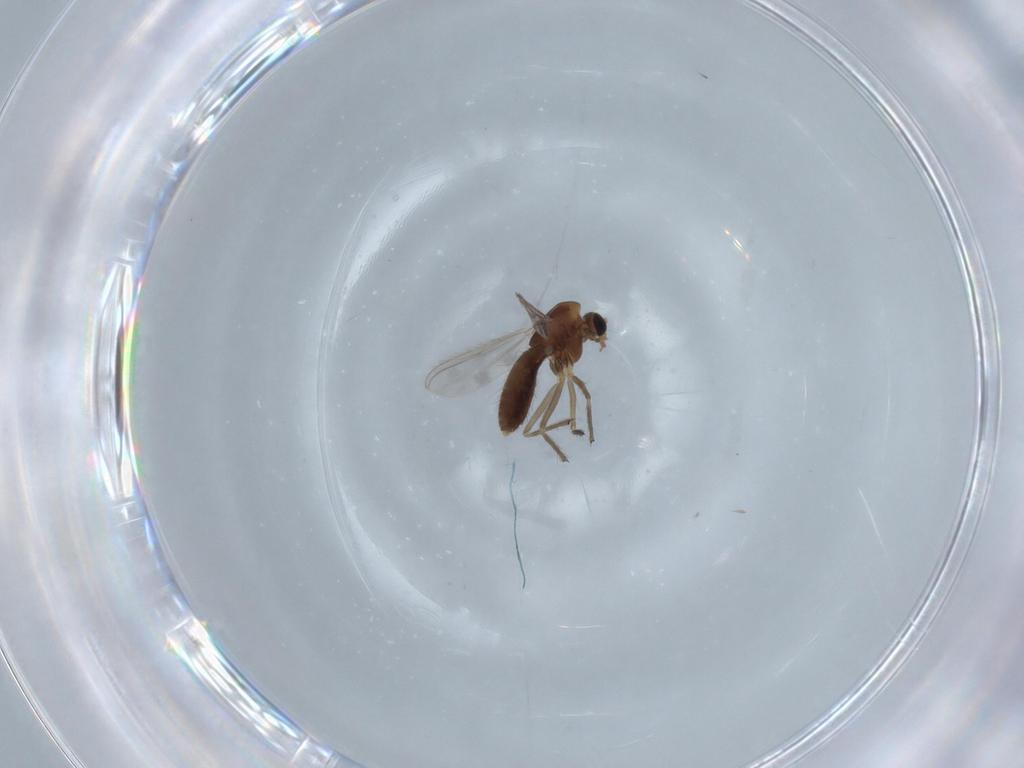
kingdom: Animalia
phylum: Arthropoda
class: Insecta
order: Diptera
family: Chironomidae
